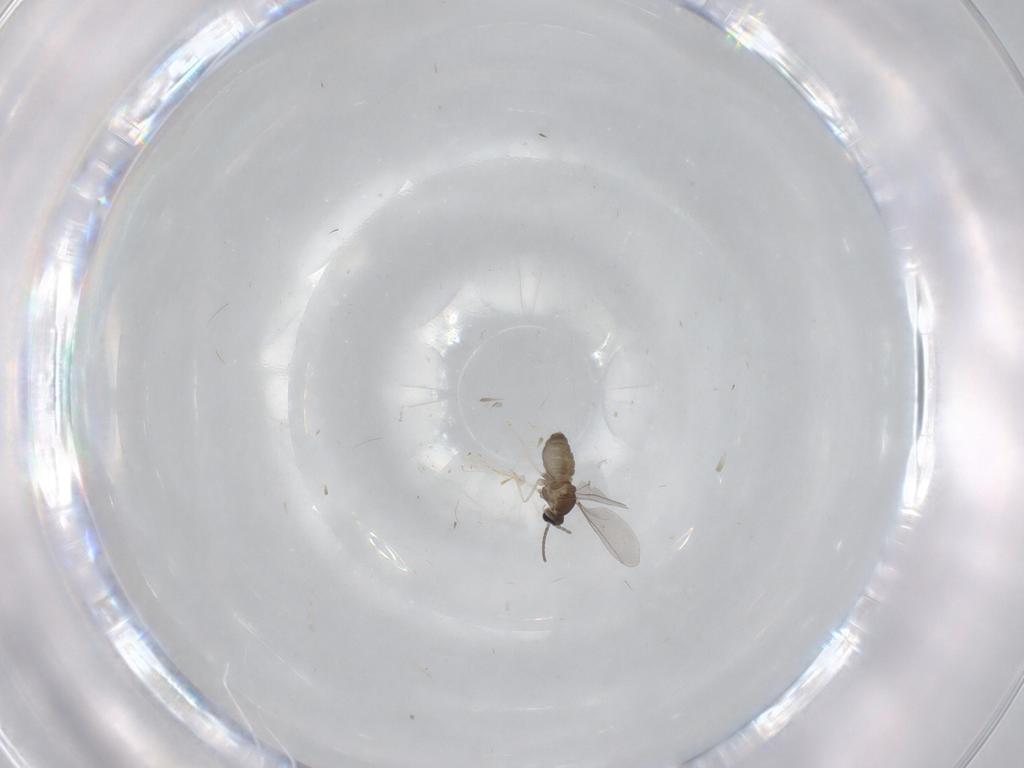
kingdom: Animalia
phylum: Arthropoda
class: Insecta
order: Diptera
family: Cecidomyiidae
